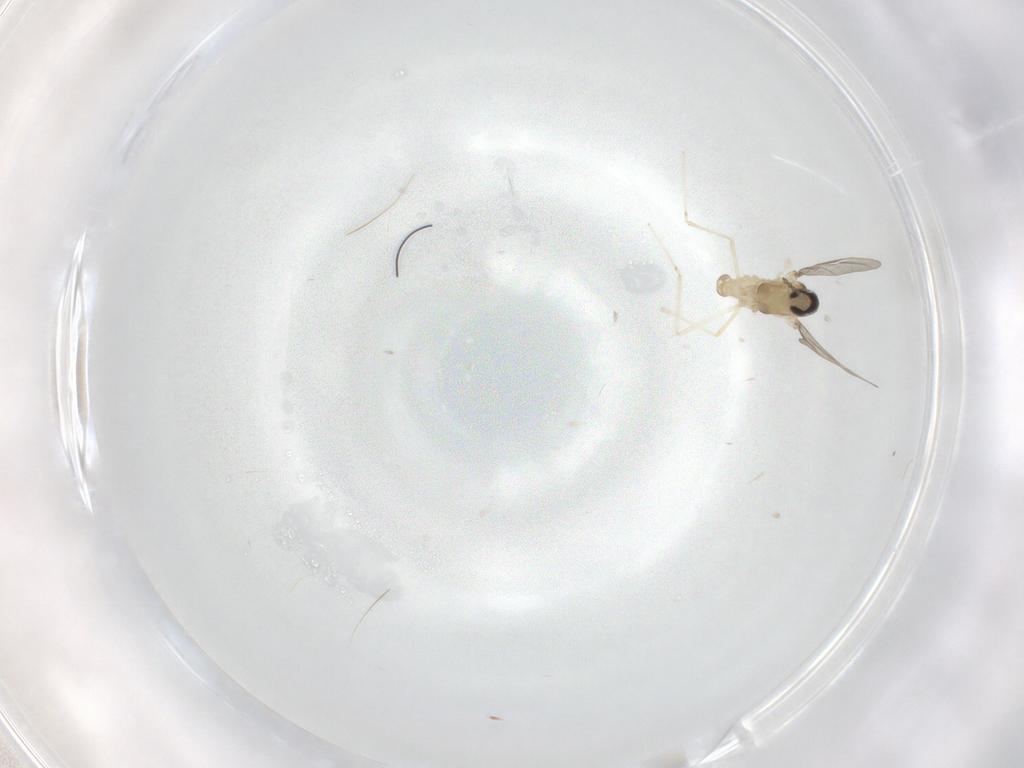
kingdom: Animalia
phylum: Arthropoda
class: Insecta
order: Diptera
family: Cecidomyiidae
